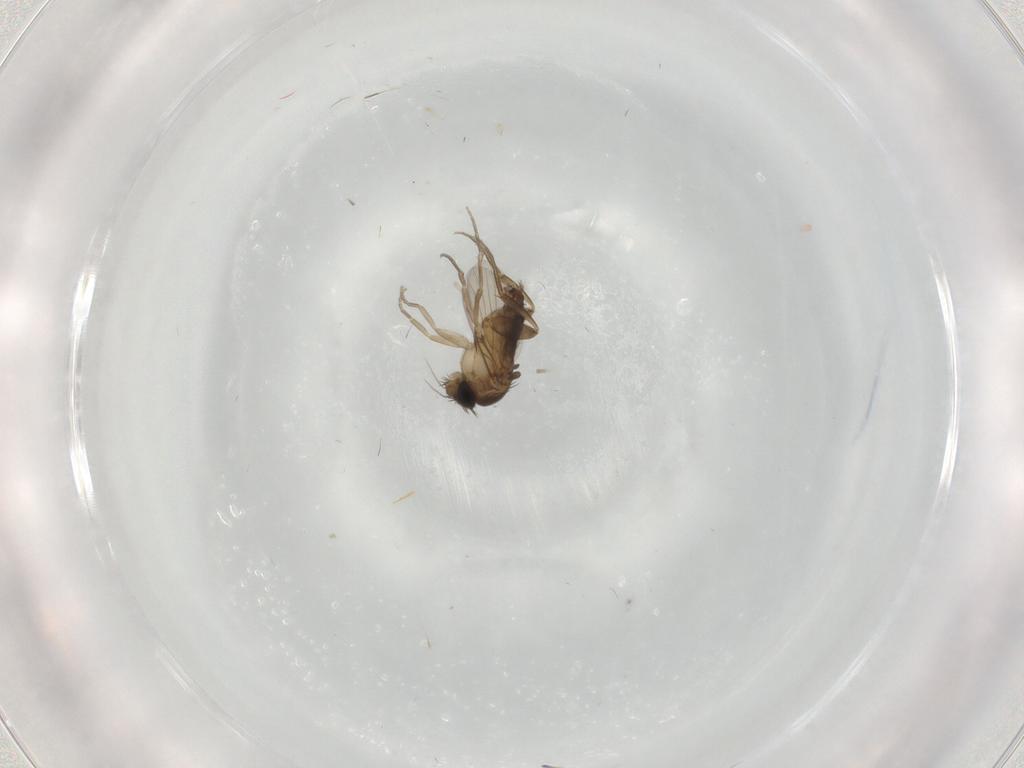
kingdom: Animalia
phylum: Arthropoda
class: Insecta
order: Diptera
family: Phoridae
